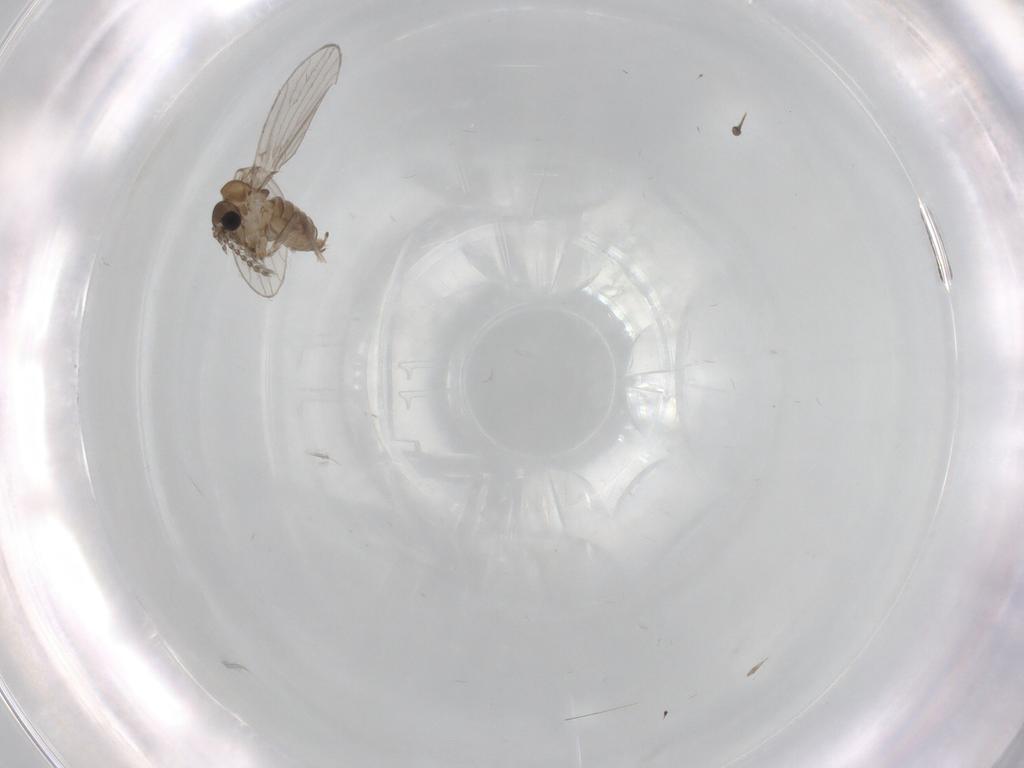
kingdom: Animalia
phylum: Arthropoda
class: Insecta
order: Diptera
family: Psychodidae
